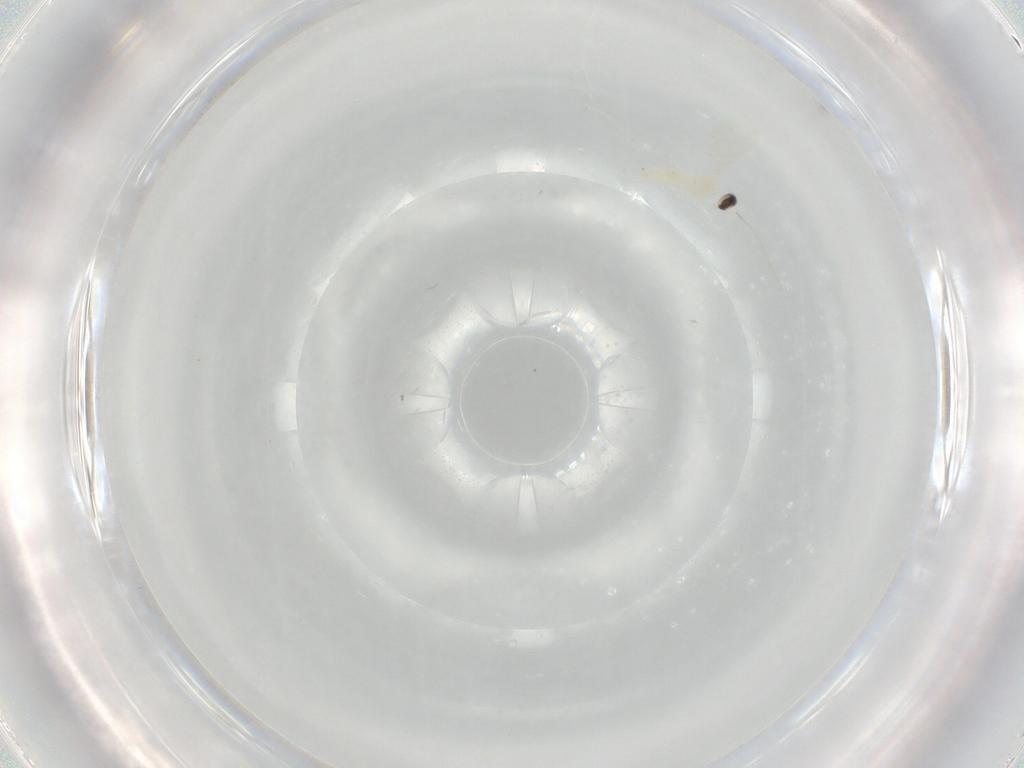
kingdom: Animalia
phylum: Arthropoda
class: Insecta
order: Diptera
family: Cecidomyiidae
